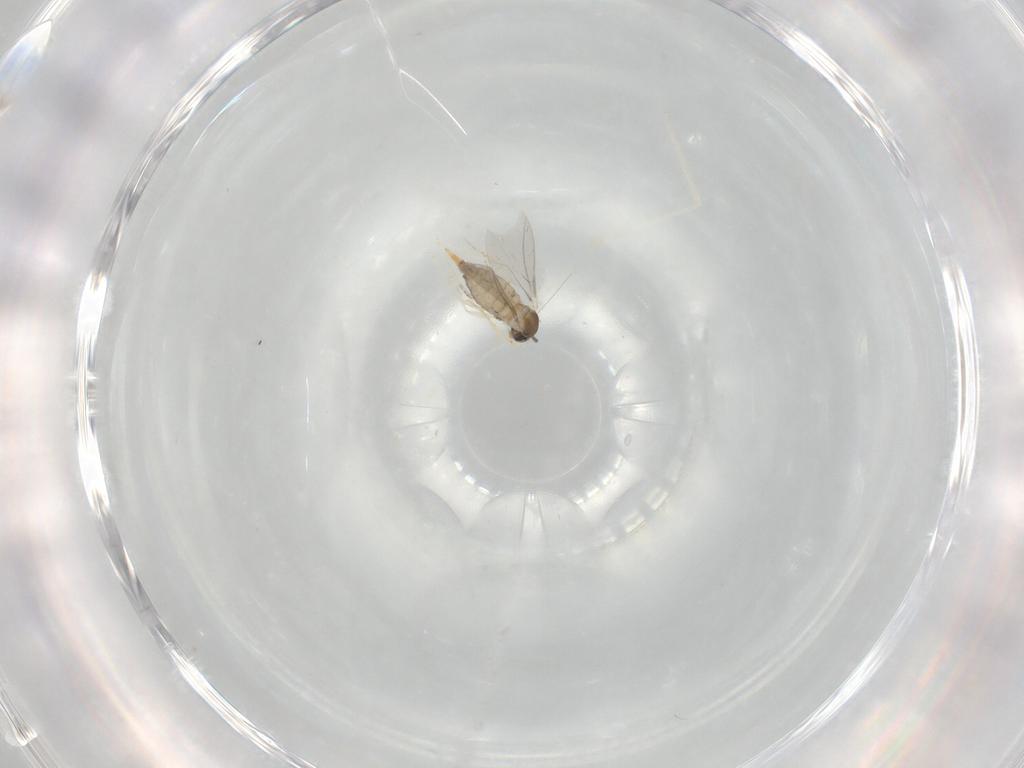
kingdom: Animalia
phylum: Arthropoda
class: Insecta
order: Diptera
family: Cecidomyiidae
